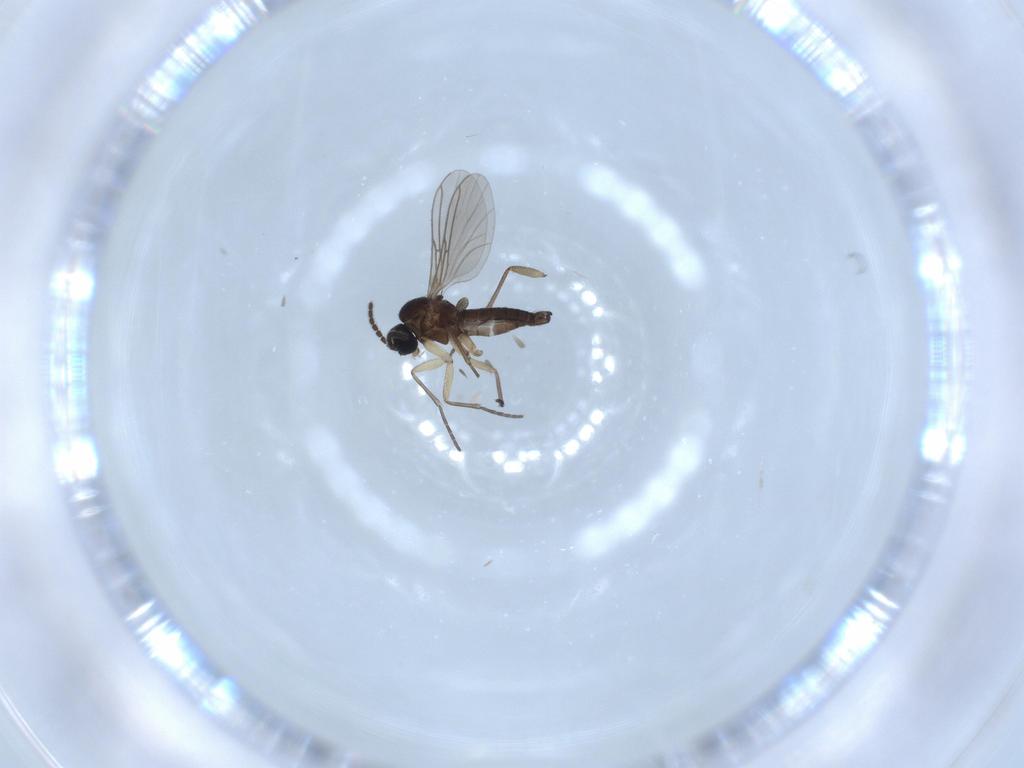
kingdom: Animalia
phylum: Arthropoda
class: Insecta
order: Diptera
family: Sciaridae
